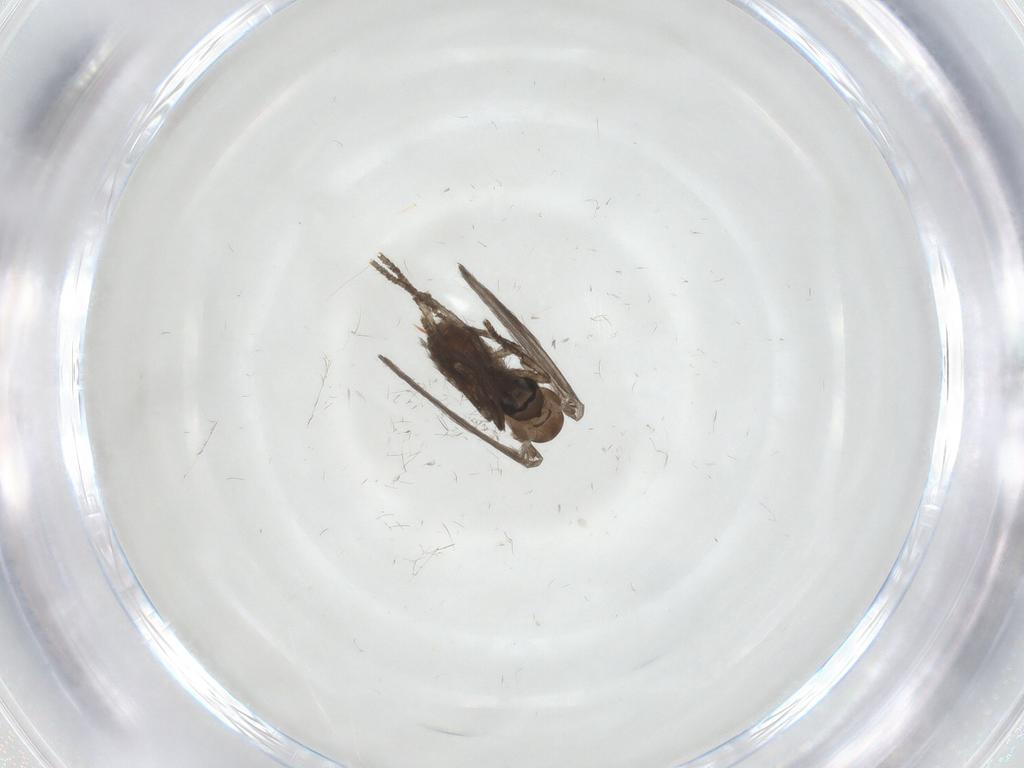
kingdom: Animalia
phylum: Arthropoda
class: Insecta
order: Diptera
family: Psychodidae
